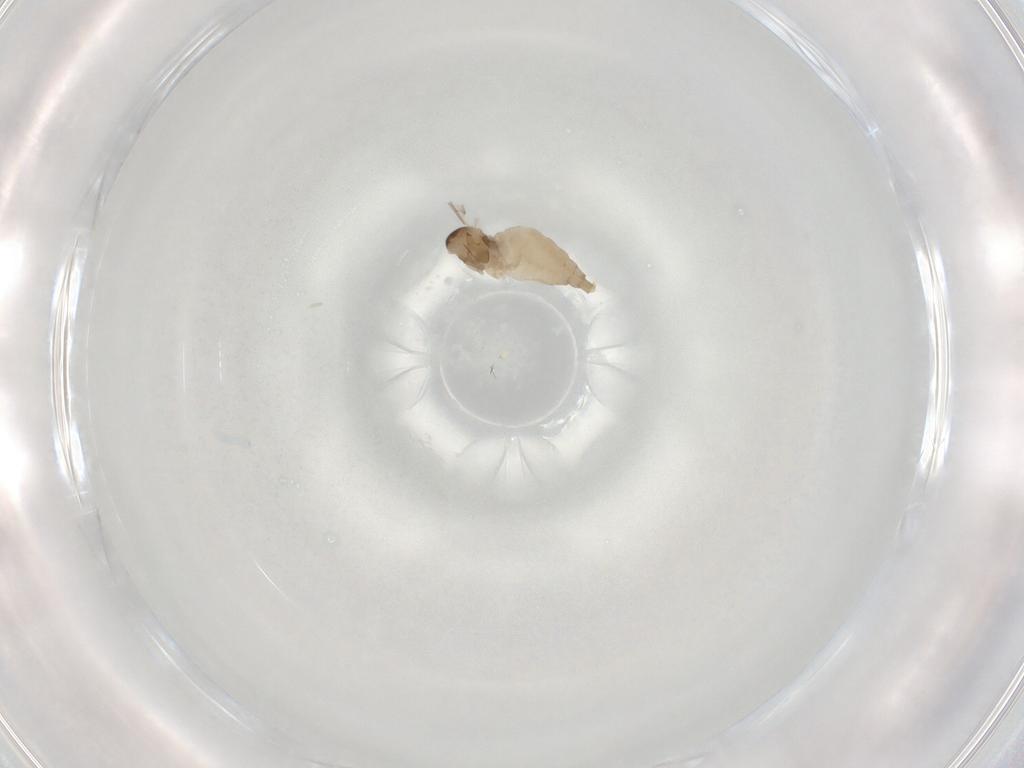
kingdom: Animalia
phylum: Arthropoda
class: Insecta
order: Diptera
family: Cecidomyiidae
